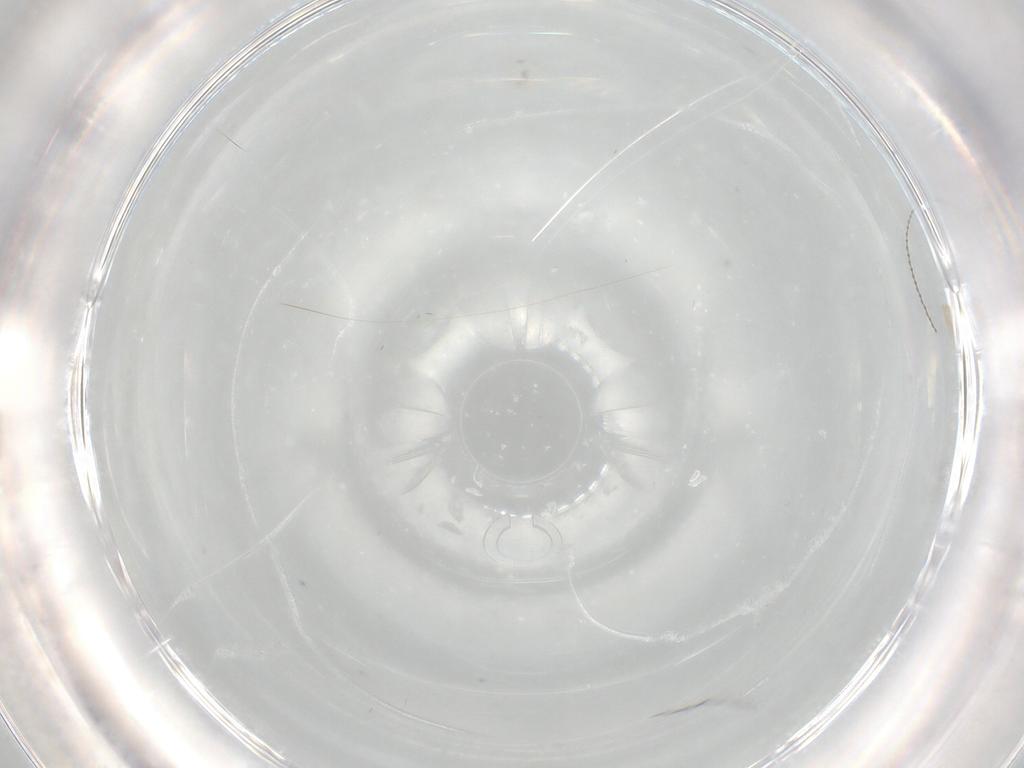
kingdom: Animalia
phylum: Arthropoda
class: Insecta
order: Diptera
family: Cecidomyiidae
